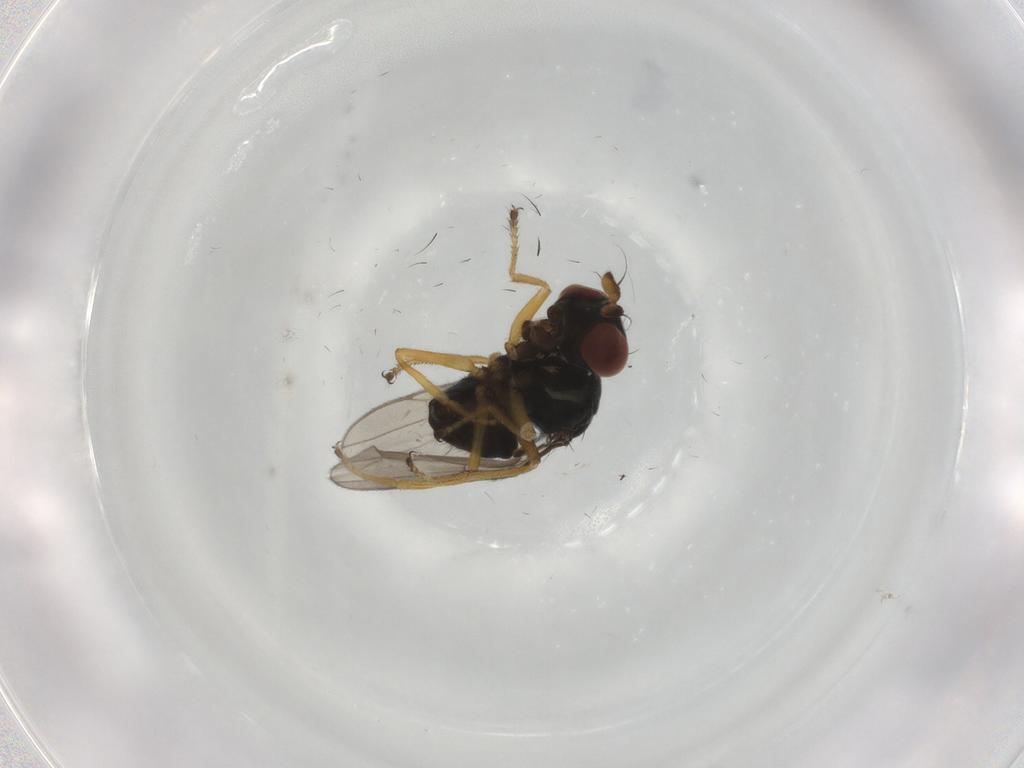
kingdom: Animalia
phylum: Arthropoda
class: Insecta
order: Diptera
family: Ephydridae
